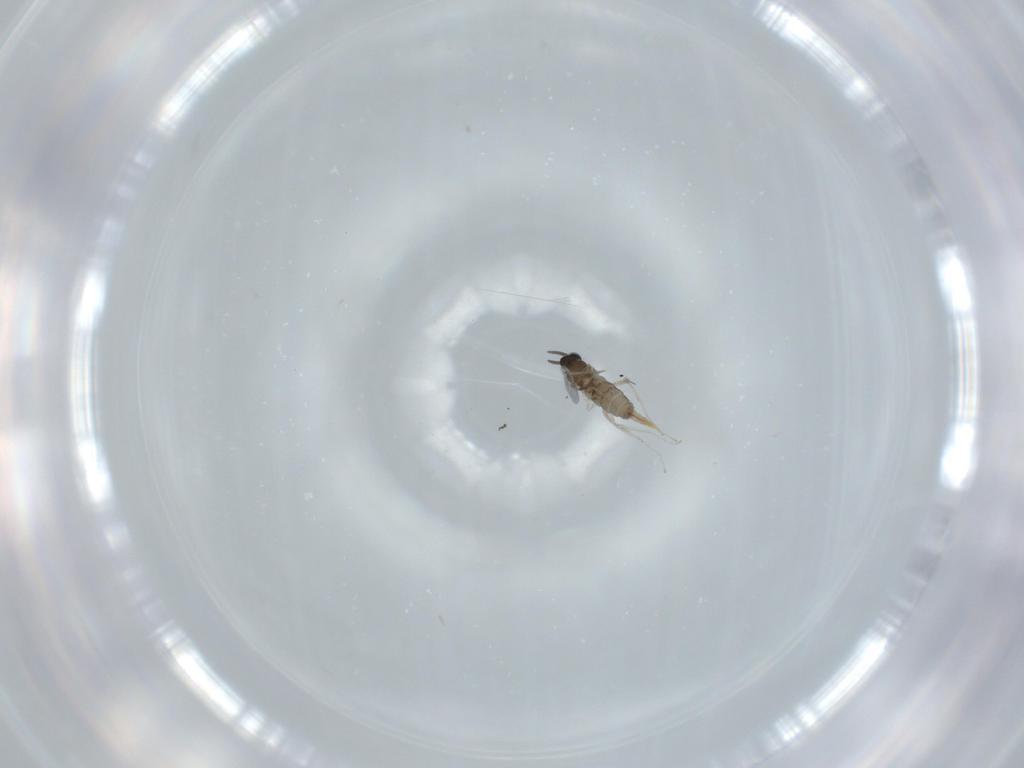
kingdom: Animalia
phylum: Arthropoda
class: Insecta
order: Diptera
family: Cecidomyiidae
